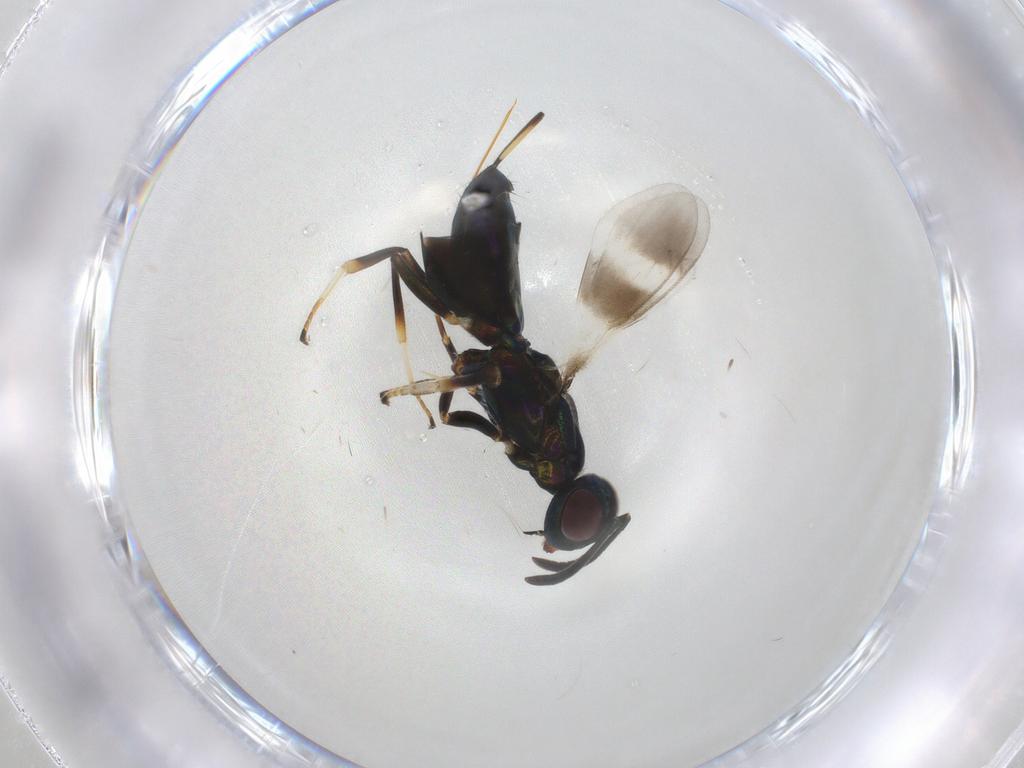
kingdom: Animalia
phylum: Arthropoda
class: Insecta
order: Hymenoptera
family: Eupelmidae
